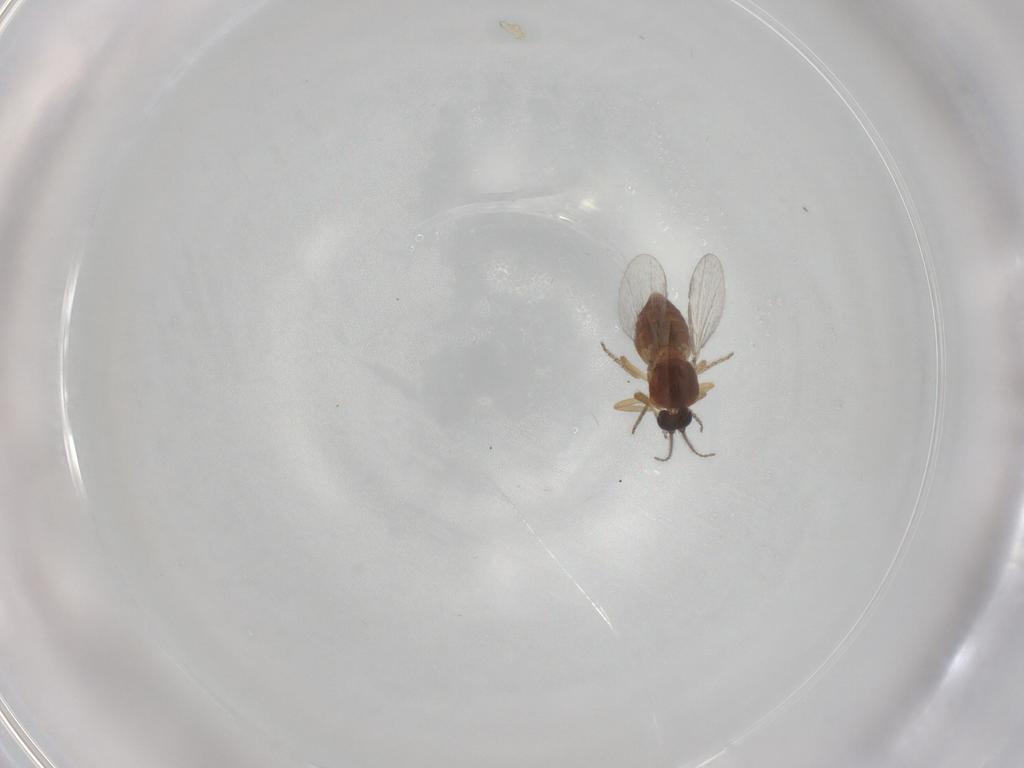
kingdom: Animalia
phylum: Arthropoda
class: Insecta
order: Diptera
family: Ceratopogonidae
